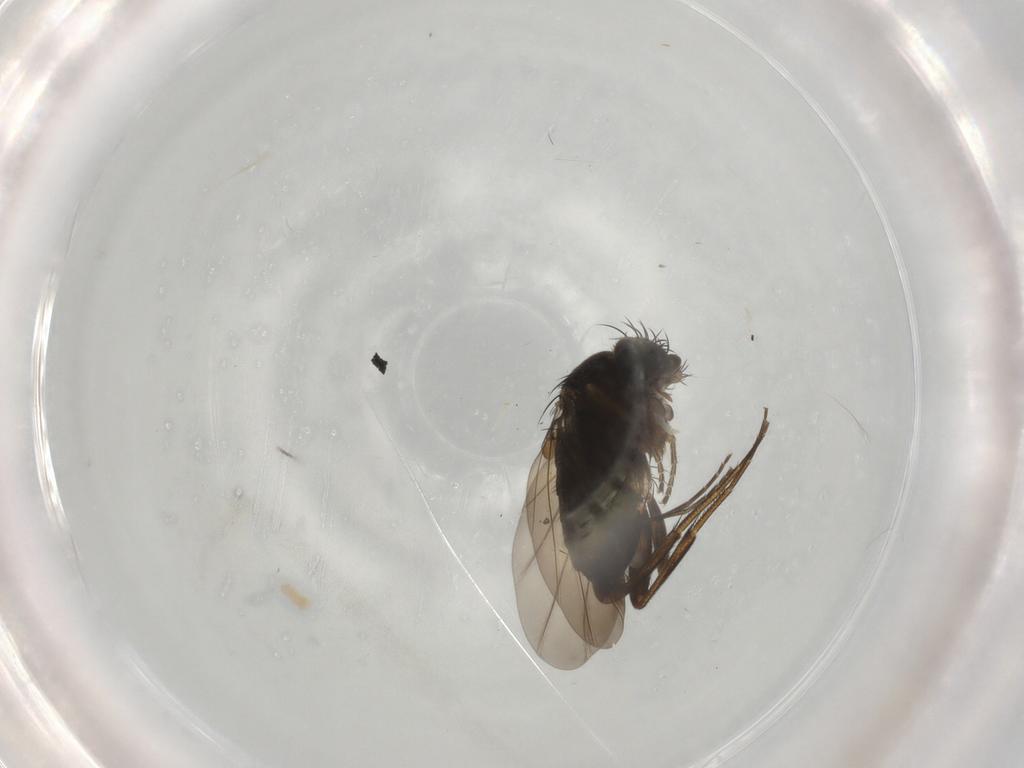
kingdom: Animalia
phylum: Arthropoda
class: Insecta
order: Diptera
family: Phoridae
